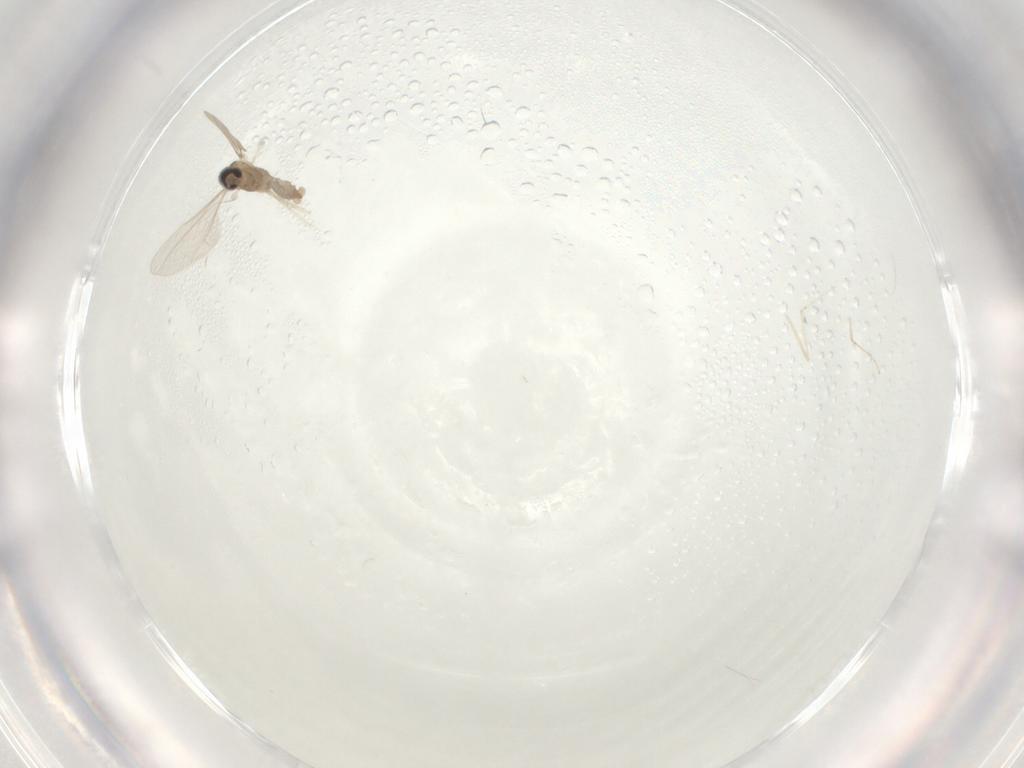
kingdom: Animalia
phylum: Arthropoda
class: Insecta
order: Diptera
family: Cecidomyiidae
